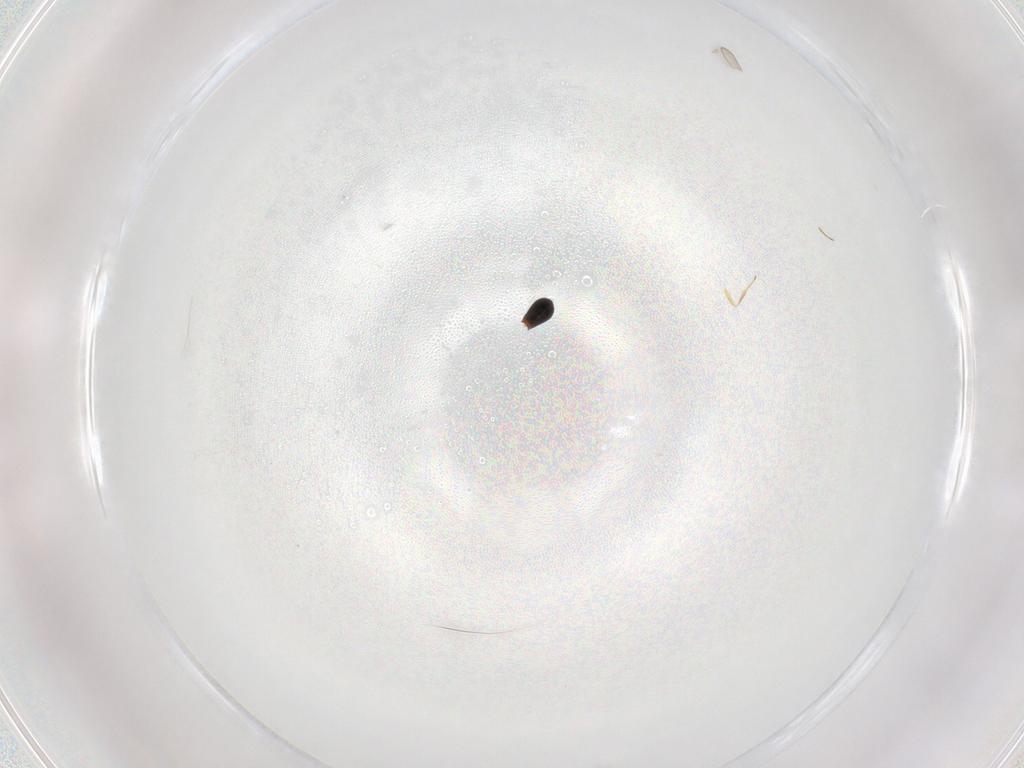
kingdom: Animalia
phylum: Arthropoda
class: Insecta
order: Hymenoptera
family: Scelionidae
